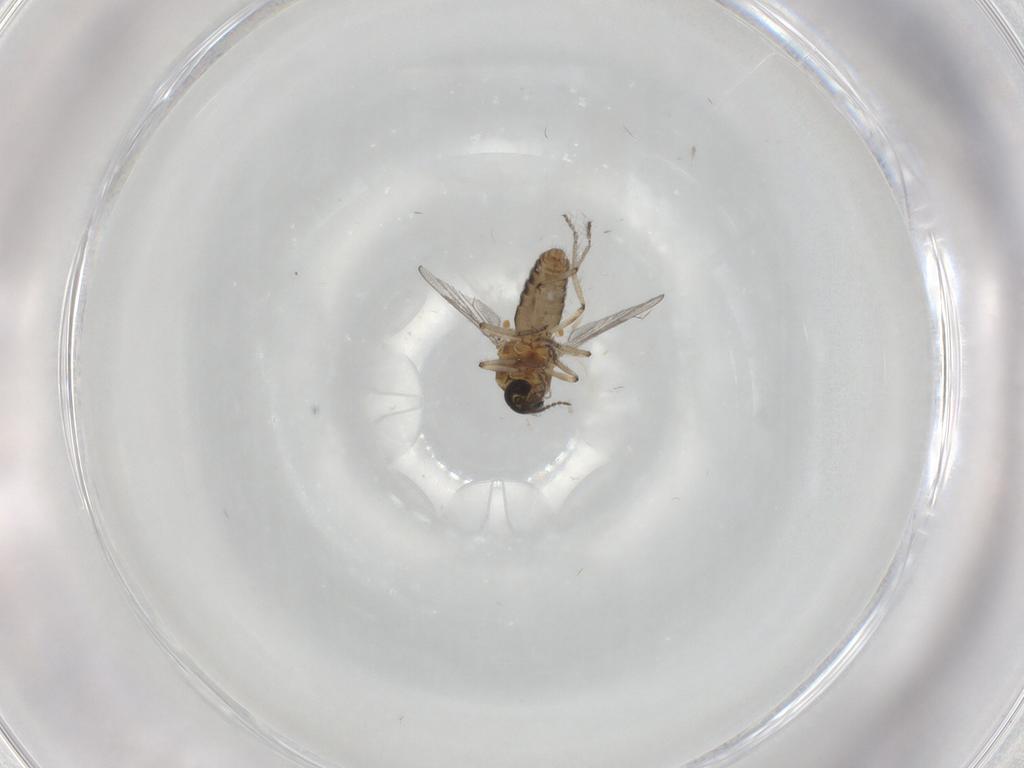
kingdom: Animalia
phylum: Arthropoda
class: Insecta
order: Diptera
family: Ceratopogonidae
